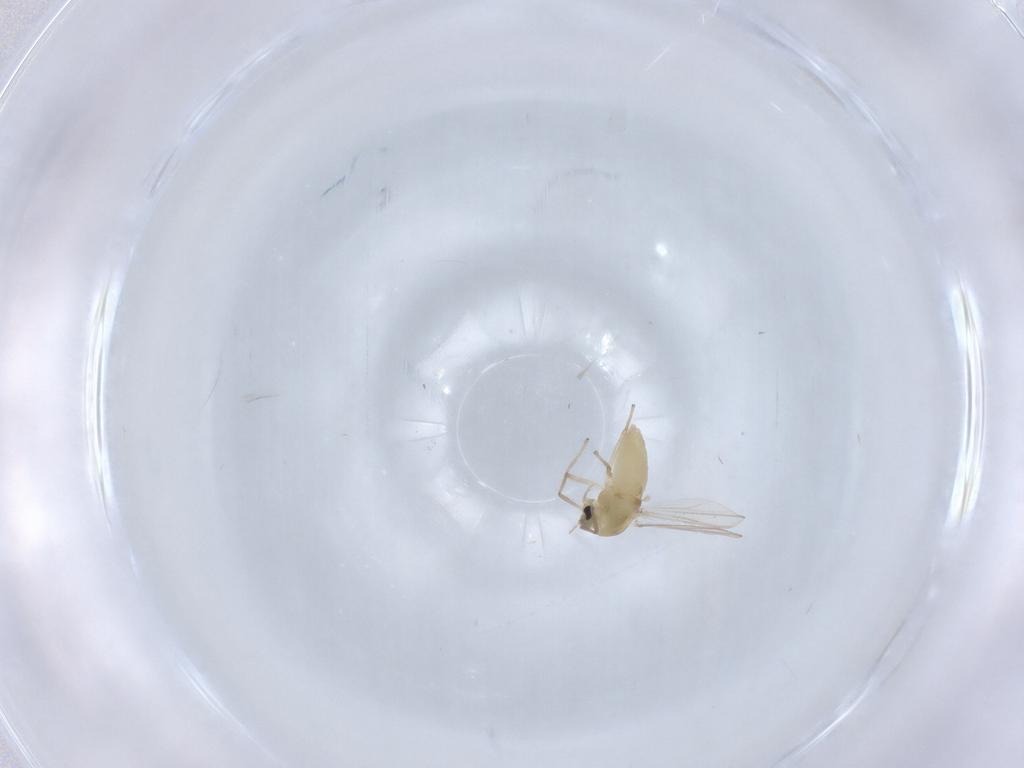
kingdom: Animalia
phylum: Arthropoda
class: Insecta
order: Diptera
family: Chironomidae
